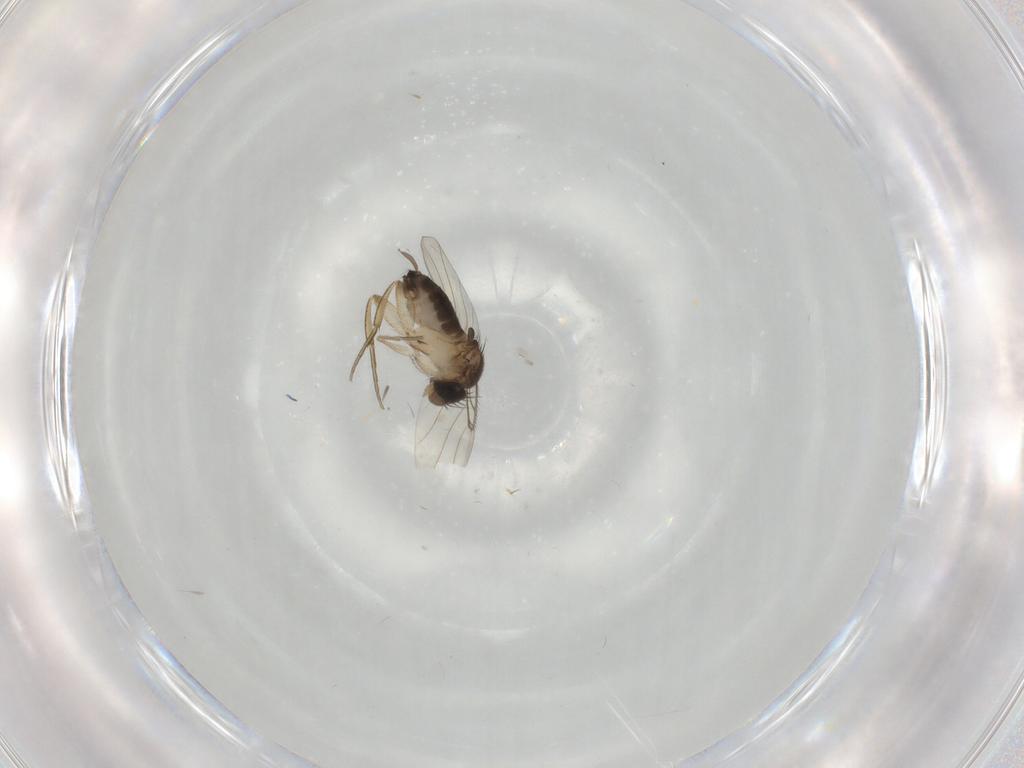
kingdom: Animalia
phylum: Arthropoda
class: Insecta
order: Diptera
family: Phoridae
